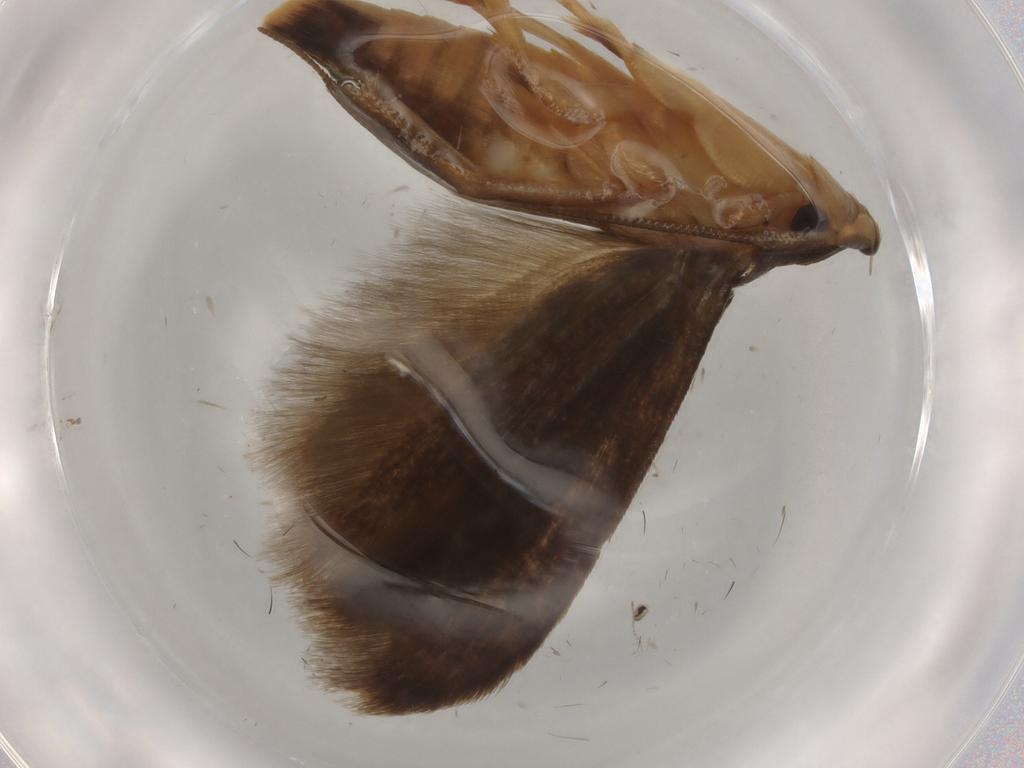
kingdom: Animalia
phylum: Arthropoda
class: Insecta
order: Lepidoptera
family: Tineidae
